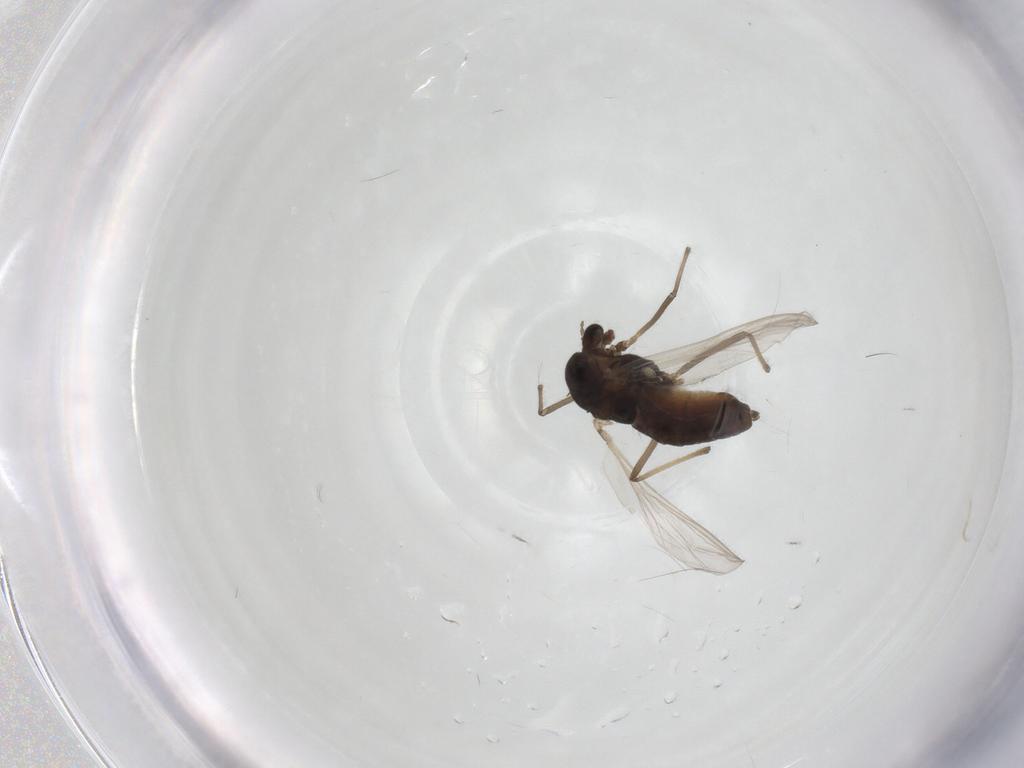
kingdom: Animalia
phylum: Arthropoda
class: Insecta
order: Diptera
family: Chironomidae
